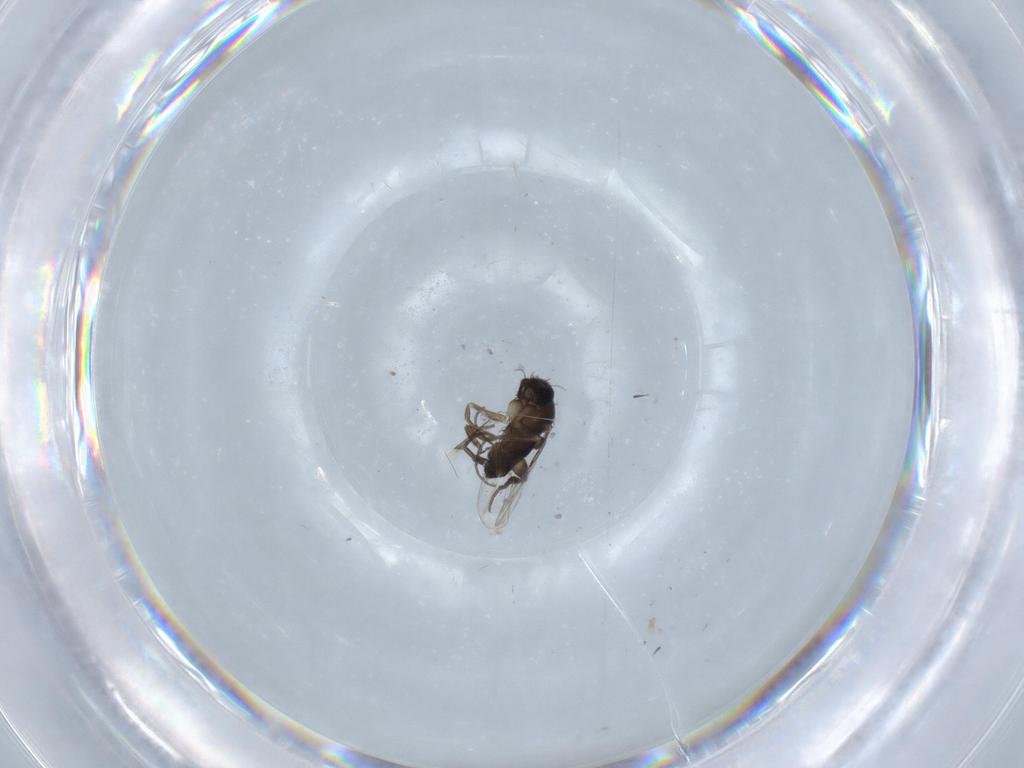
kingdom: Animalia
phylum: Arthropoda
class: Insecta
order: Diptera
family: Phoridae
